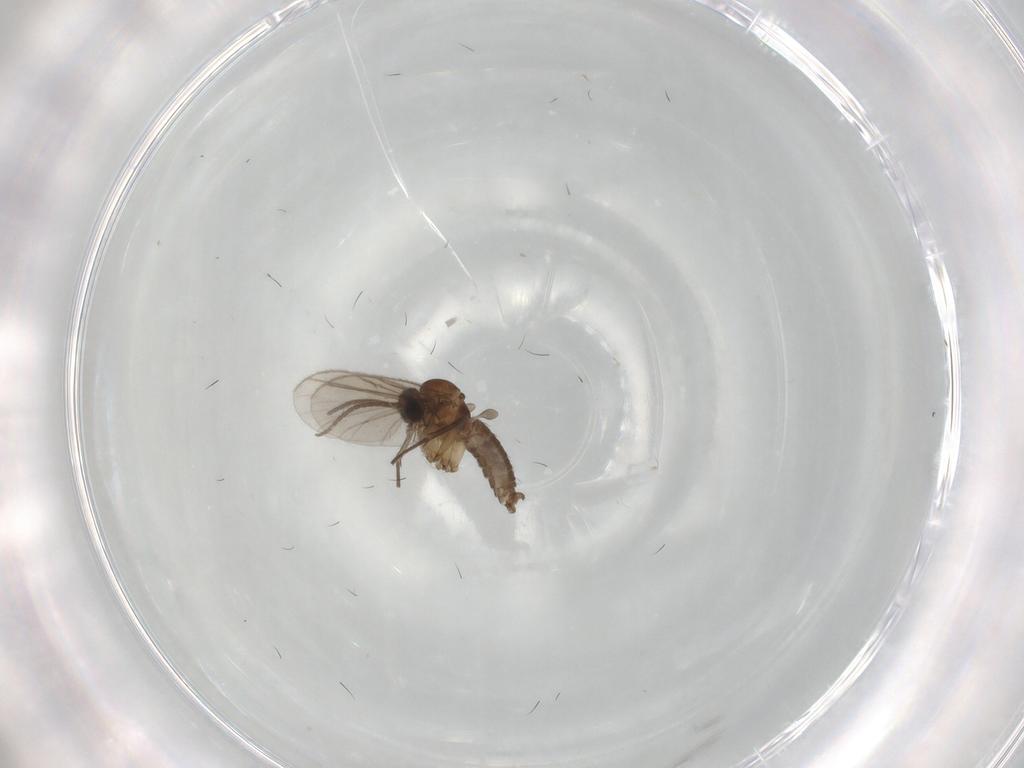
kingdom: Animalia
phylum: Arthropoda
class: Insecta
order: Diptera
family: Sciaridae
